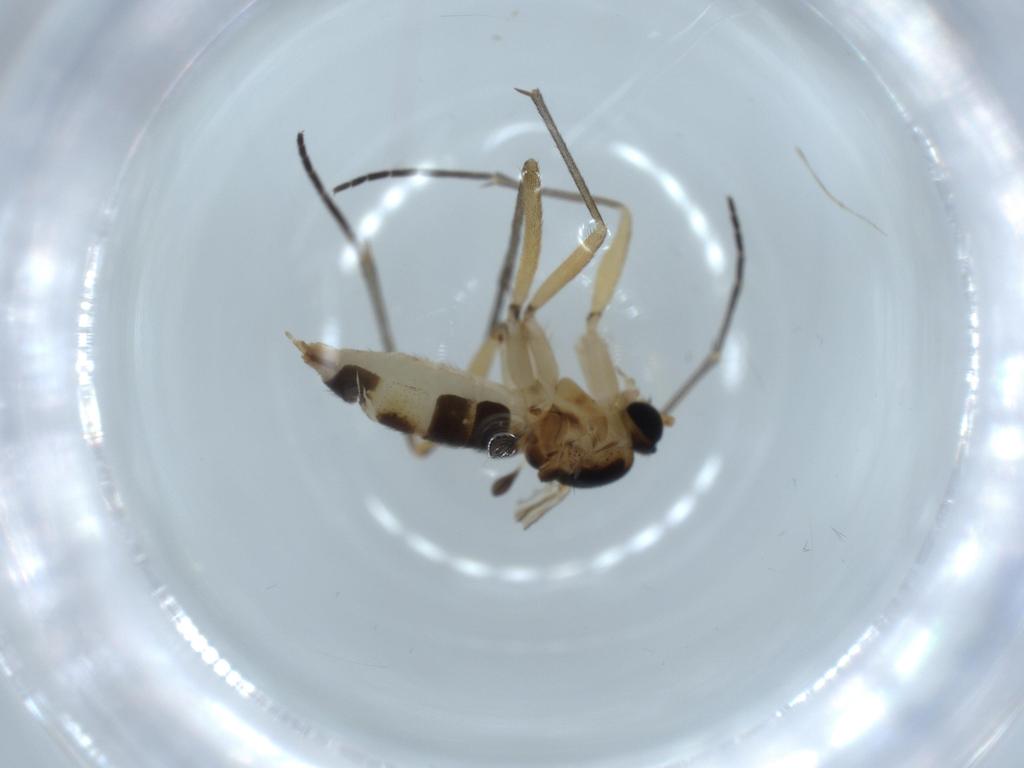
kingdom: Animalia
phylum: Arthropoda
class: Insecta
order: Diptera
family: Sciaridae
